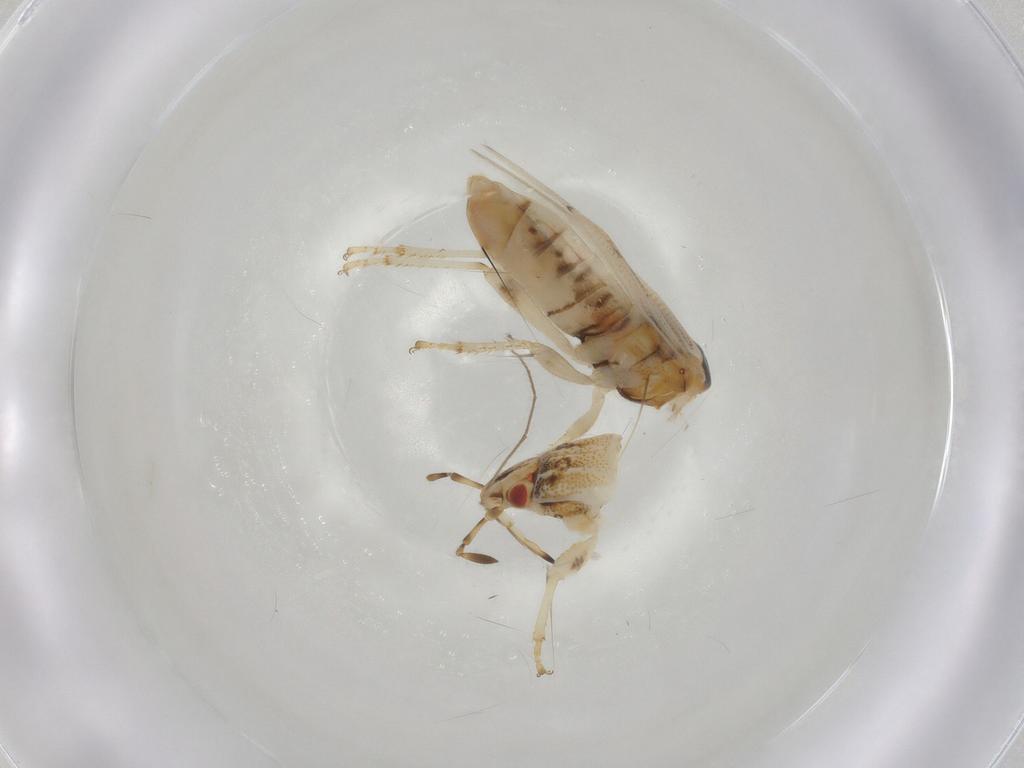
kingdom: Animalia
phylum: Arthropoda
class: Insecta
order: Hemiptera
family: Artheneidae
